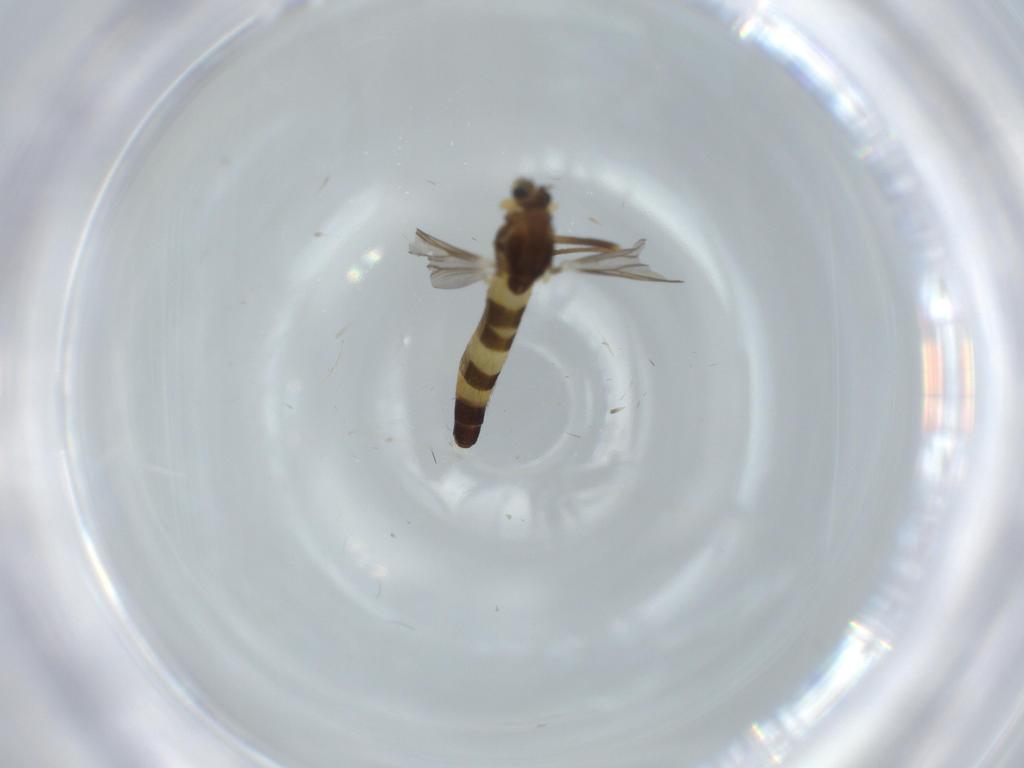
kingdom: Animalia
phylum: Arthropoda
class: Insecta
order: Diptera
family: Chironomidae
